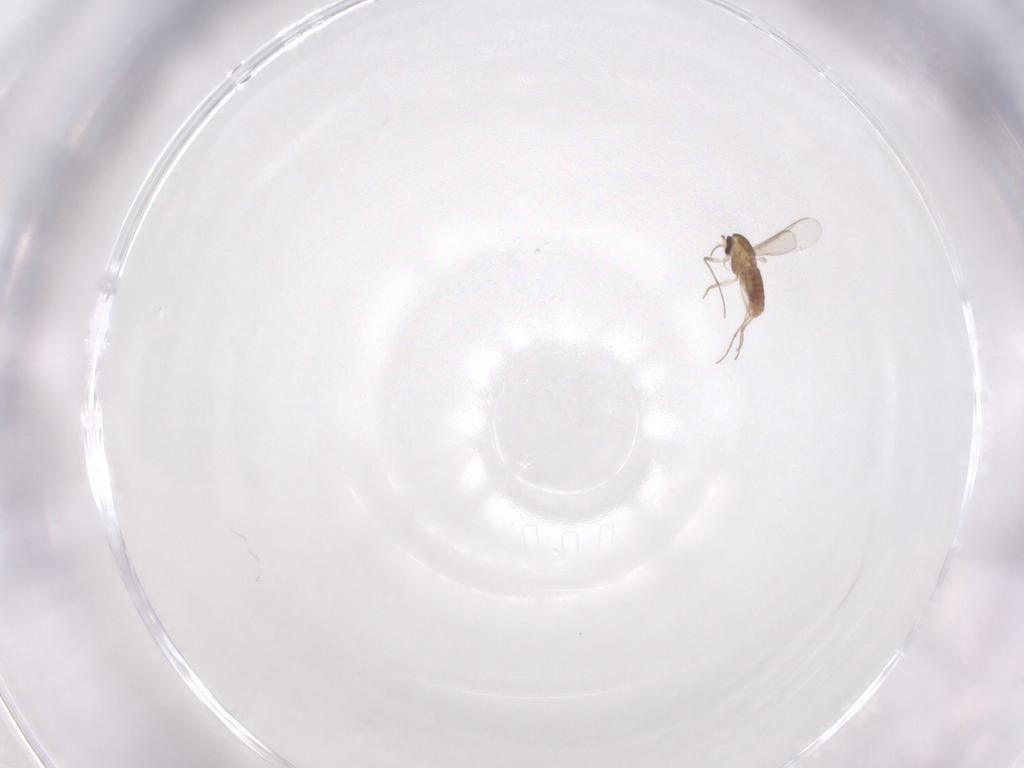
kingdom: Animalia
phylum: Arthropoda
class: Insecta
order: Diptera
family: Chironomidae
